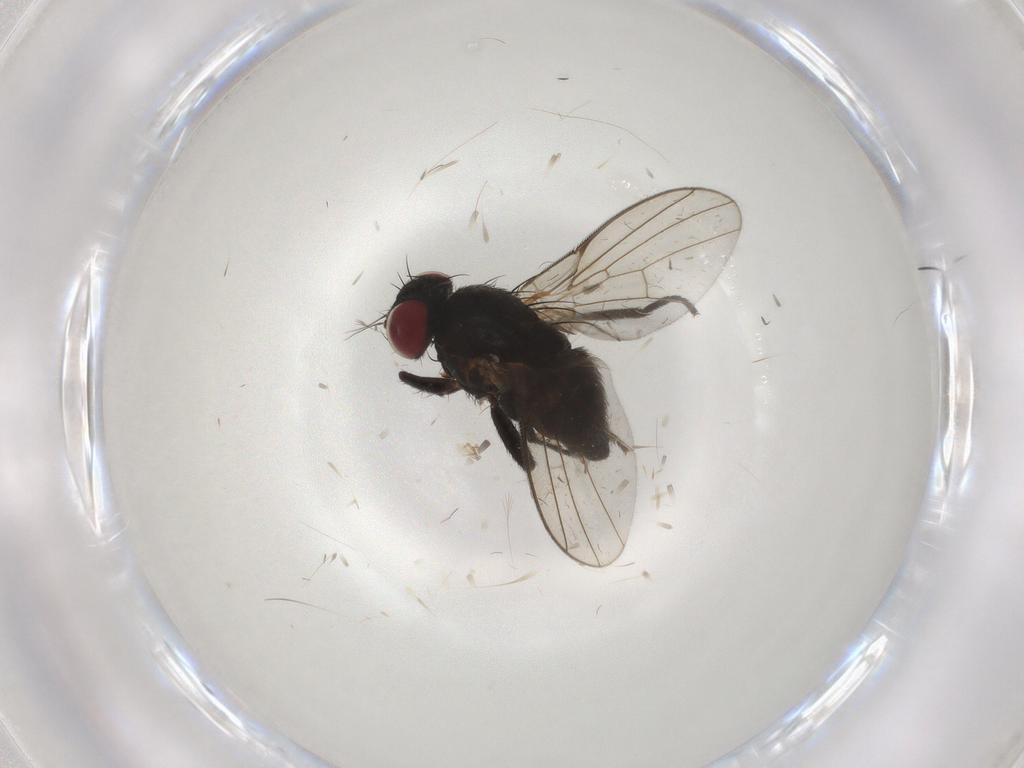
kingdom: Animalia
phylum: Arthropoda
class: Insecta
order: Diptera
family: Agromyzidae
